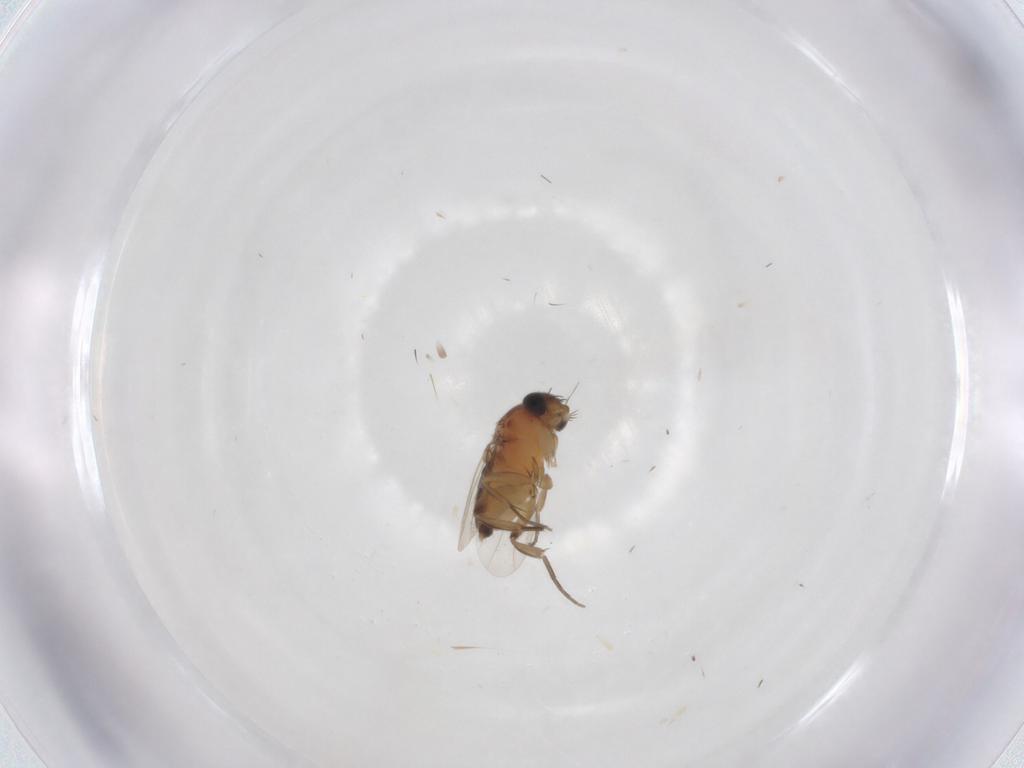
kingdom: Animalia
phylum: Arthropoda
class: Insecta
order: Diptera
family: Phoridae
